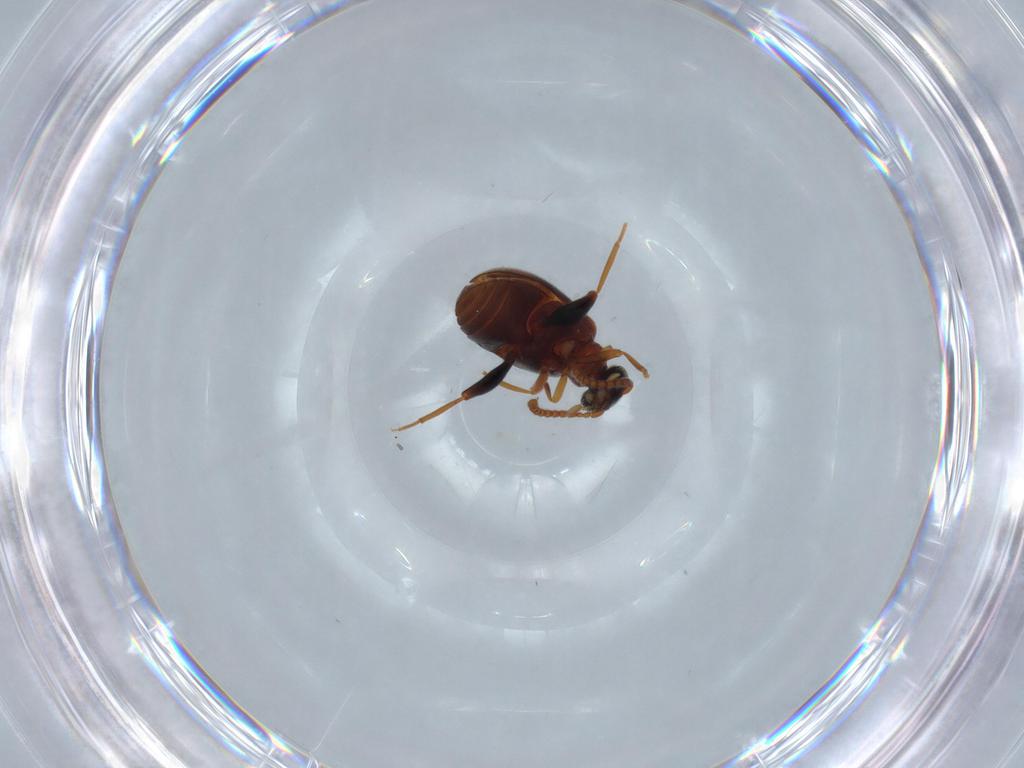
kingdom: Animalia
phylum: Arthropoda
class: Insecta
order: Coleoptera
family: Aderidae
